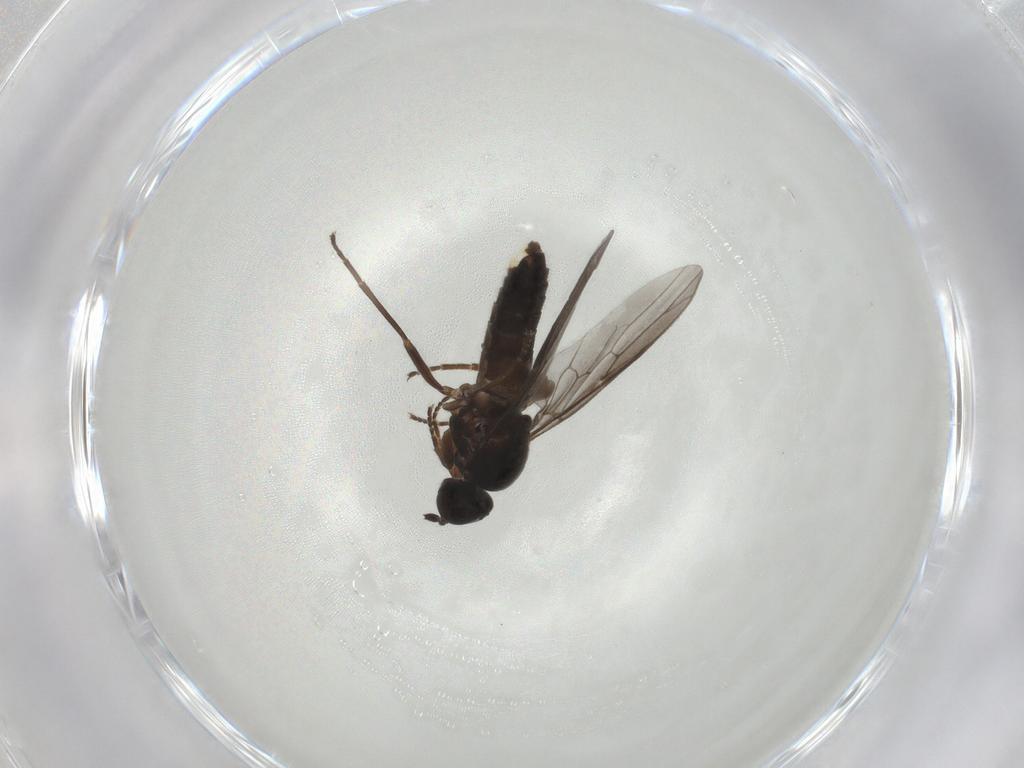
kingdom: Animalia
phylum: Arthropoda
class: Insecta
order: Diptera
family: Scenopinidae
